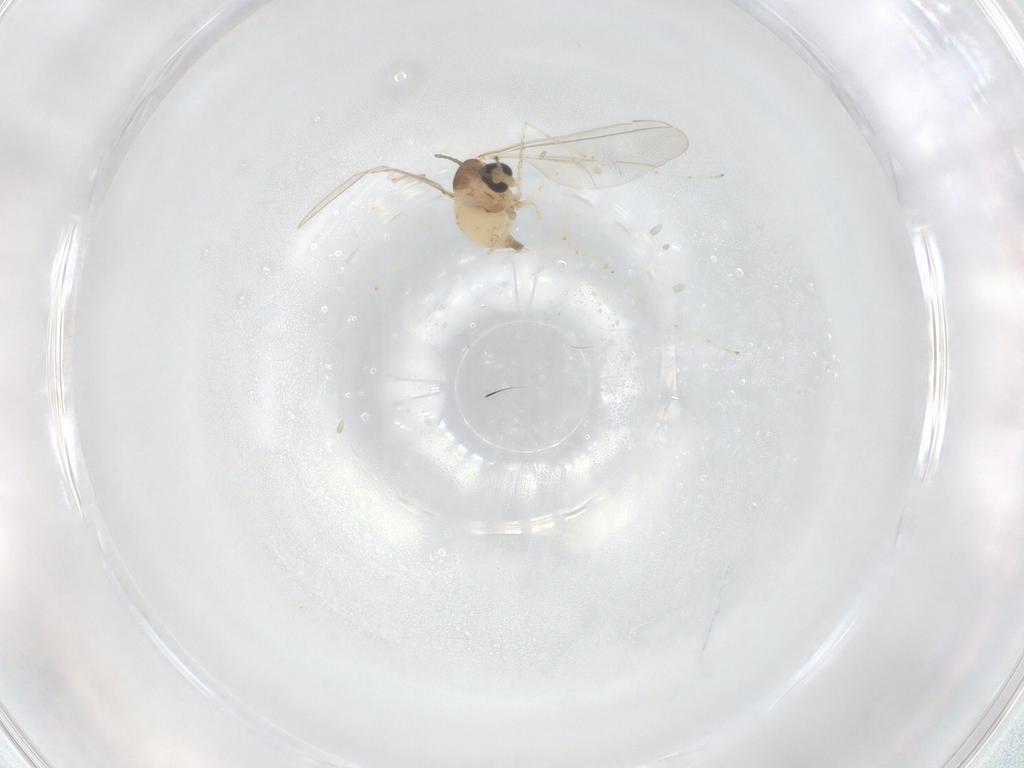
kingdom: Animalia
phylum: Arthropoda
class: Insecta
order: Diptera
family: Cecidomyiidae
